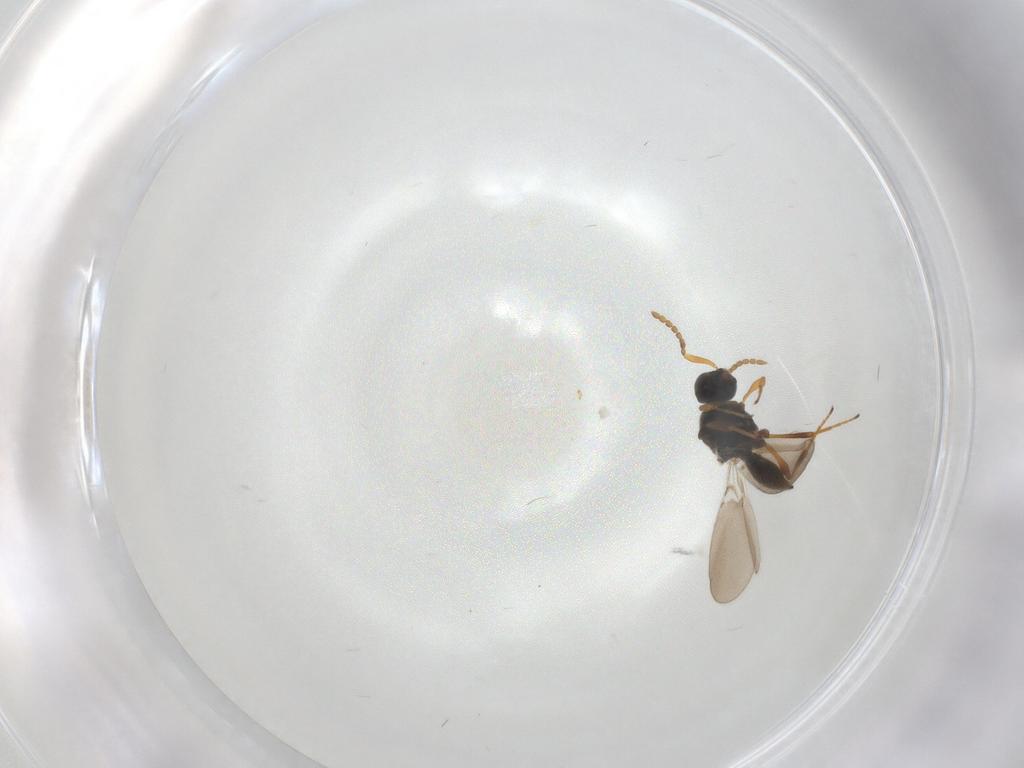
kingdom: Animalia
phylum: Arthropoda
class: Insecta
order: Hymenoptera
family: Platygastridae
